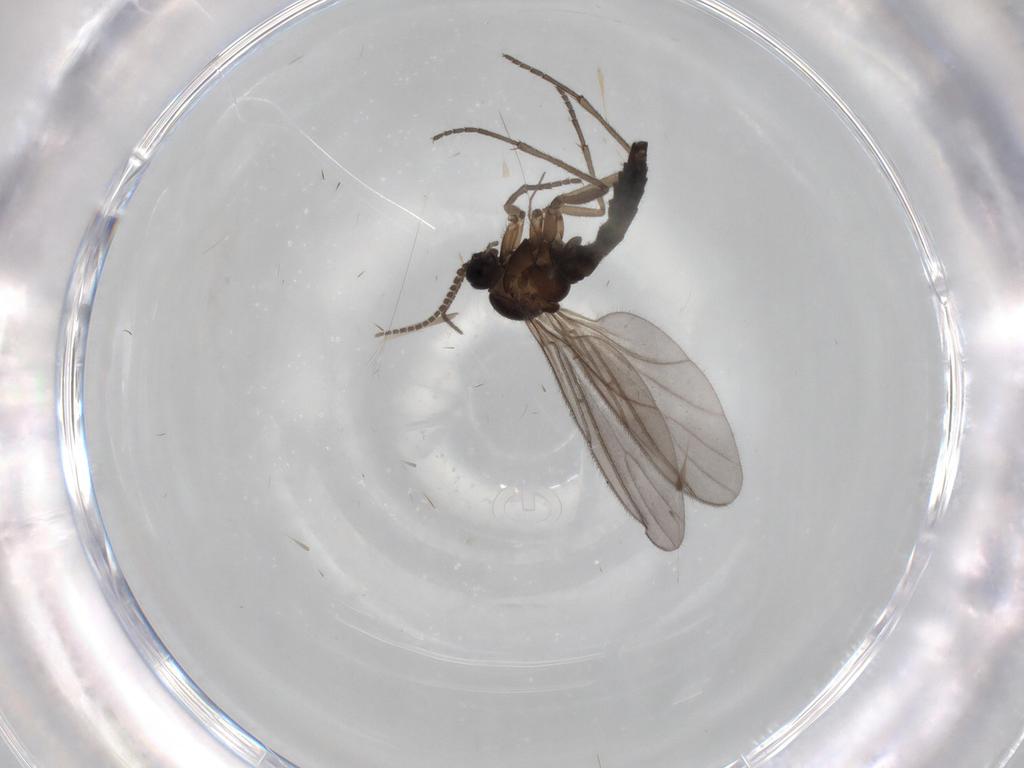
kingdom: Animalia
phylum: Arthropoda
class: Insecta
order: Diptera
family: Sciaridae
